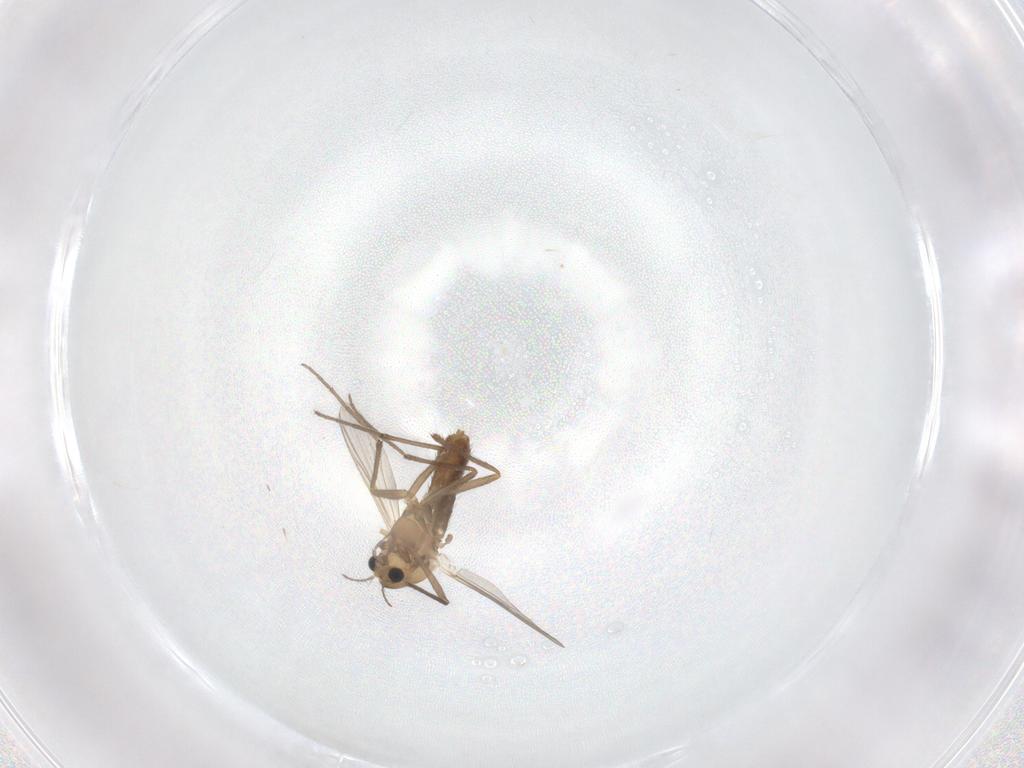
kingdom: Animalia
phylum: Arthropoda
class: Insecta
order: Diptera
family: Chironomidae
